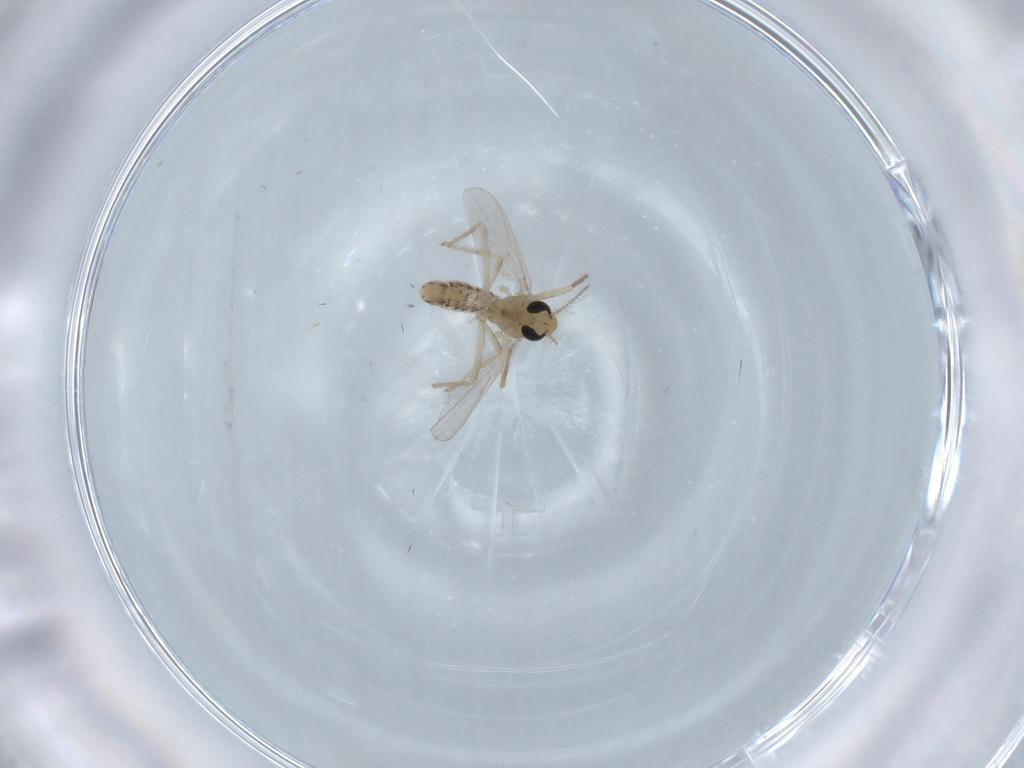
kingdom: Animalia
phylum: Arthropoda
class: Insecta
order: Diptera
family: Chironomidae
